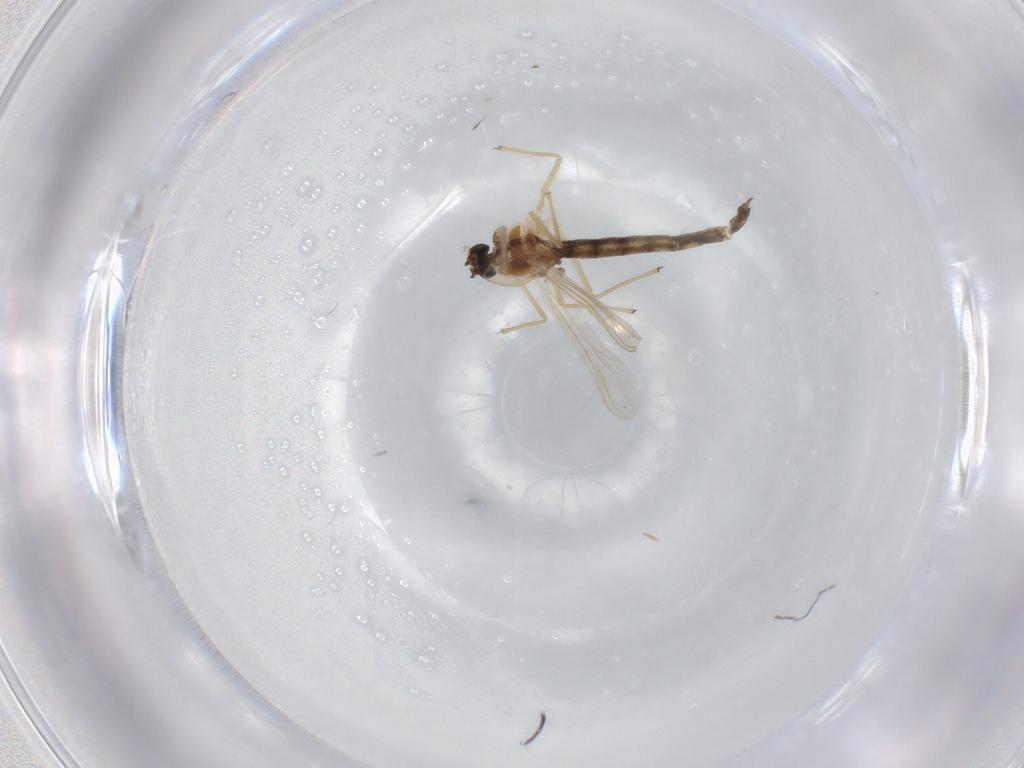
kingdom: Animalia
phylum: Arthropoda
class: Insecta
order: Diptera
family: Chironomidae
